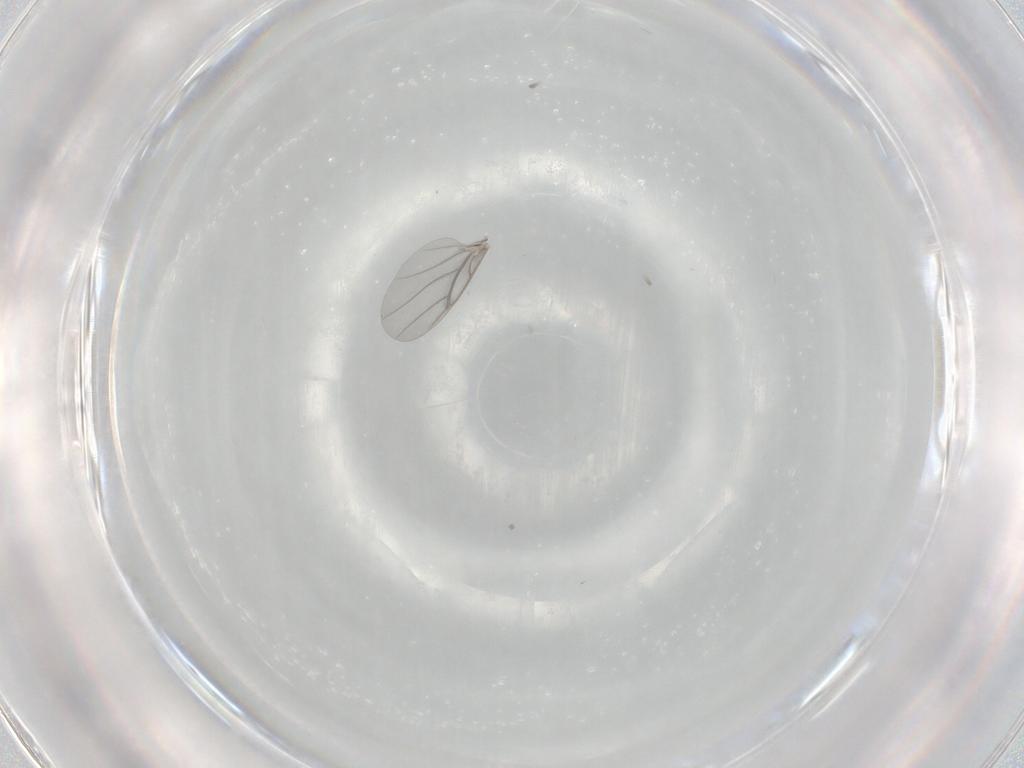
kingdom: Animalia
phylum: Arthropoda
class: Insecta
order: Diptera
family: Ceratopogonidae
